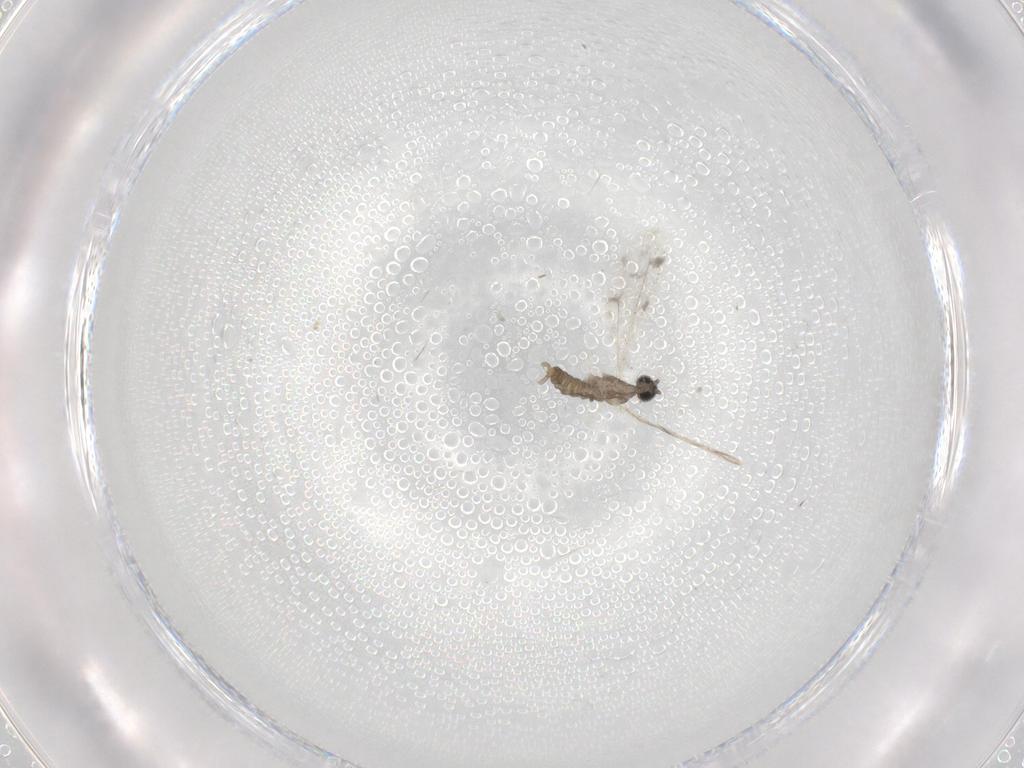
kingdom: Animalia
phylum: Arthropoda
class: Insecta
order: Diptera
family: Cecidomyiidae
